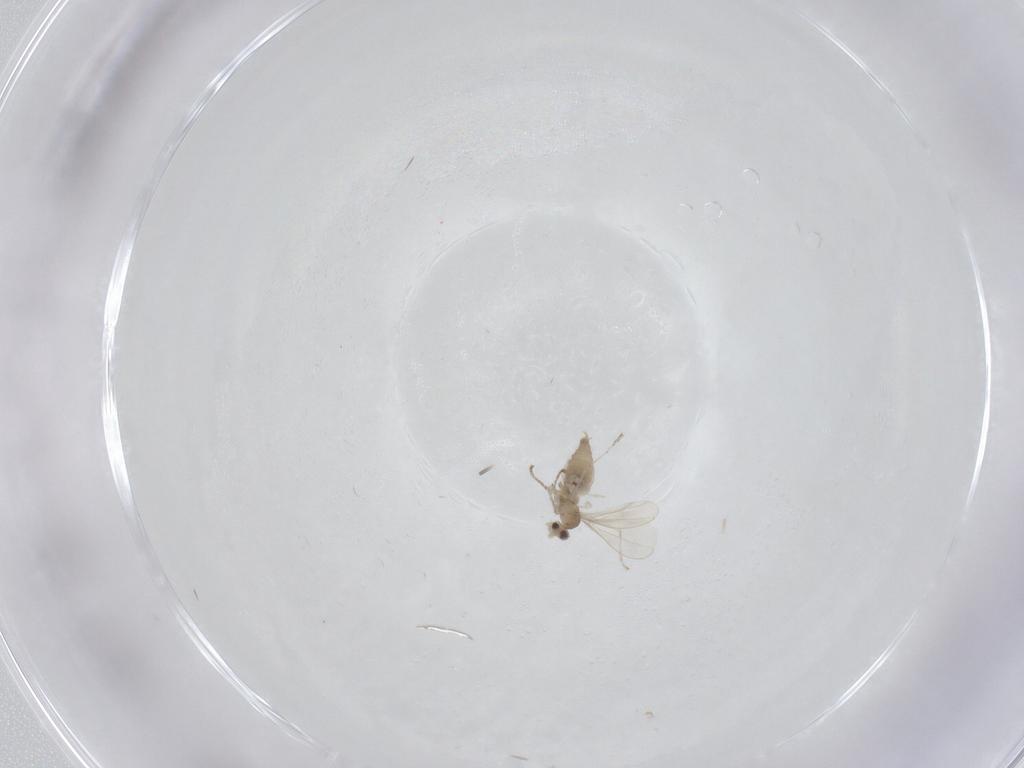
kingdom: Animalia
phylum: Arthropoda
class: Insecta
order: Diptera
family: Cecidomyiidae
